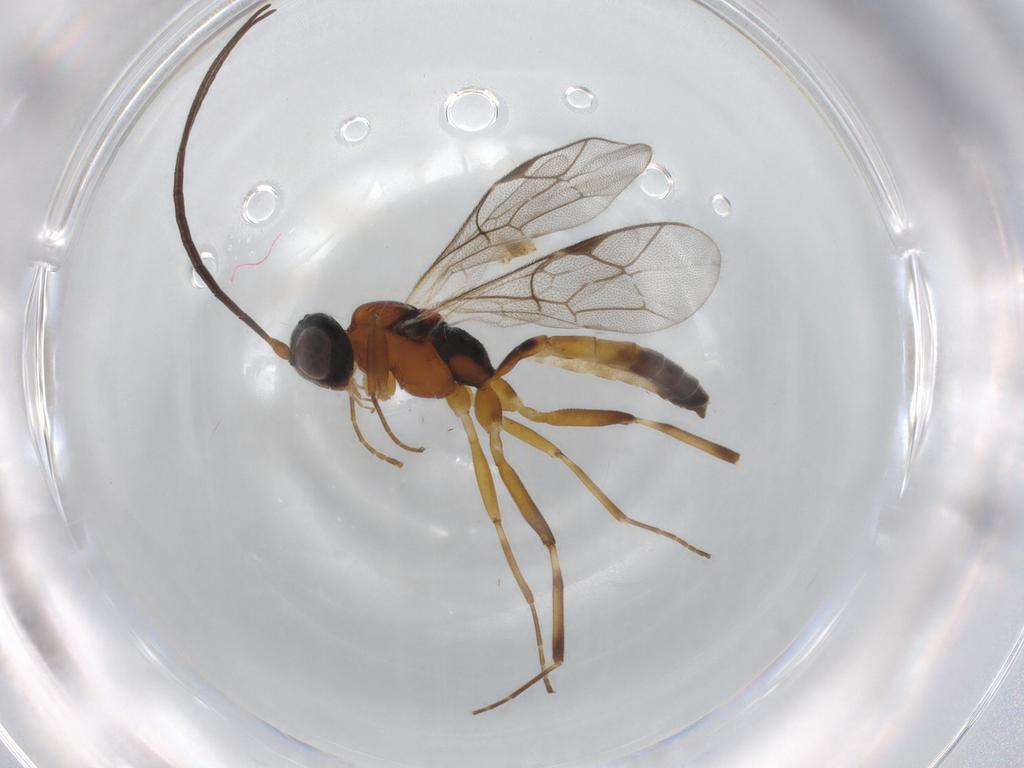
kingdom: Animalia
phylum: Arthropoda
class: Insecta
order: Hymenoptera
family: Ichneumonidae
